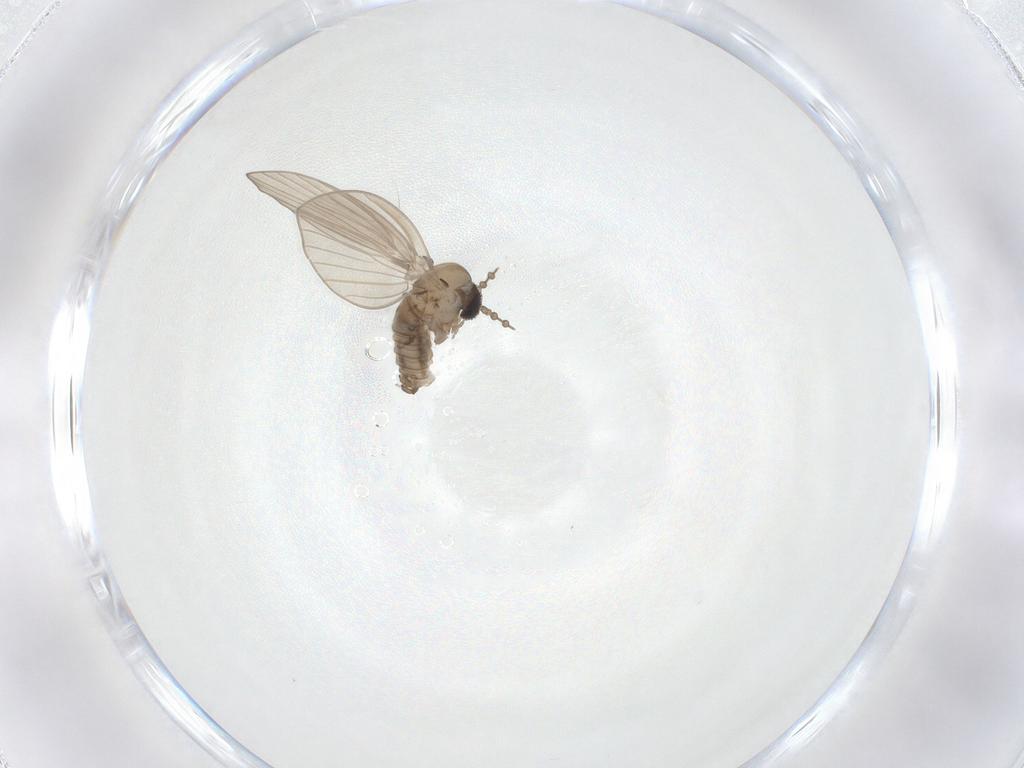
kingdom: Animalia
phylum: Arthropoda
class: Insecta
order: Diptera
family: Psychodidae
